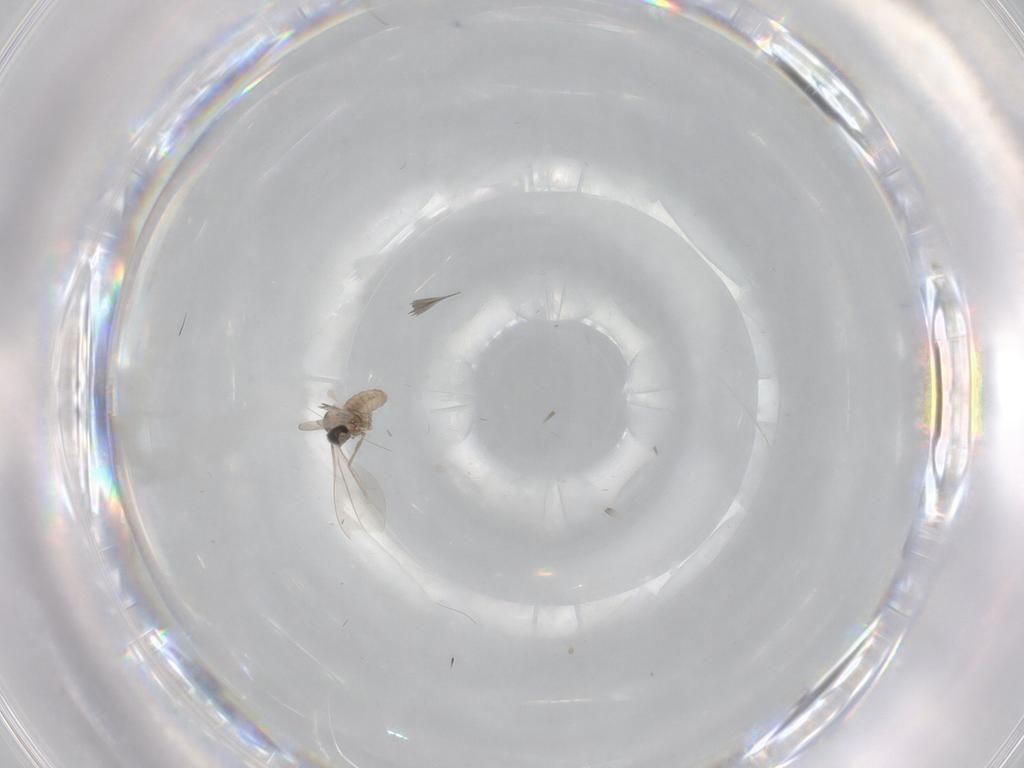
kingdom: Animalia
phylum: Arthropoda
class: Insecta
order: Diptera
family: Cecidomyiidae
